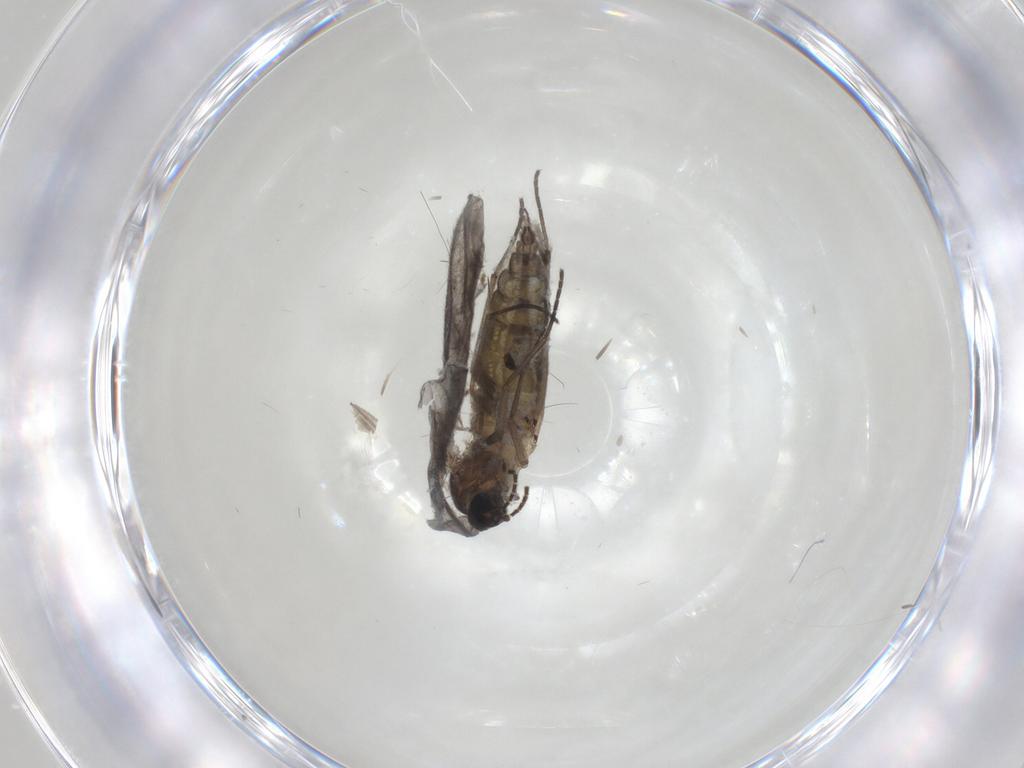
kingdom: Animalia
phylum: Arthropoda
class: Insecta
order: Diptera
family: Sciaridae
